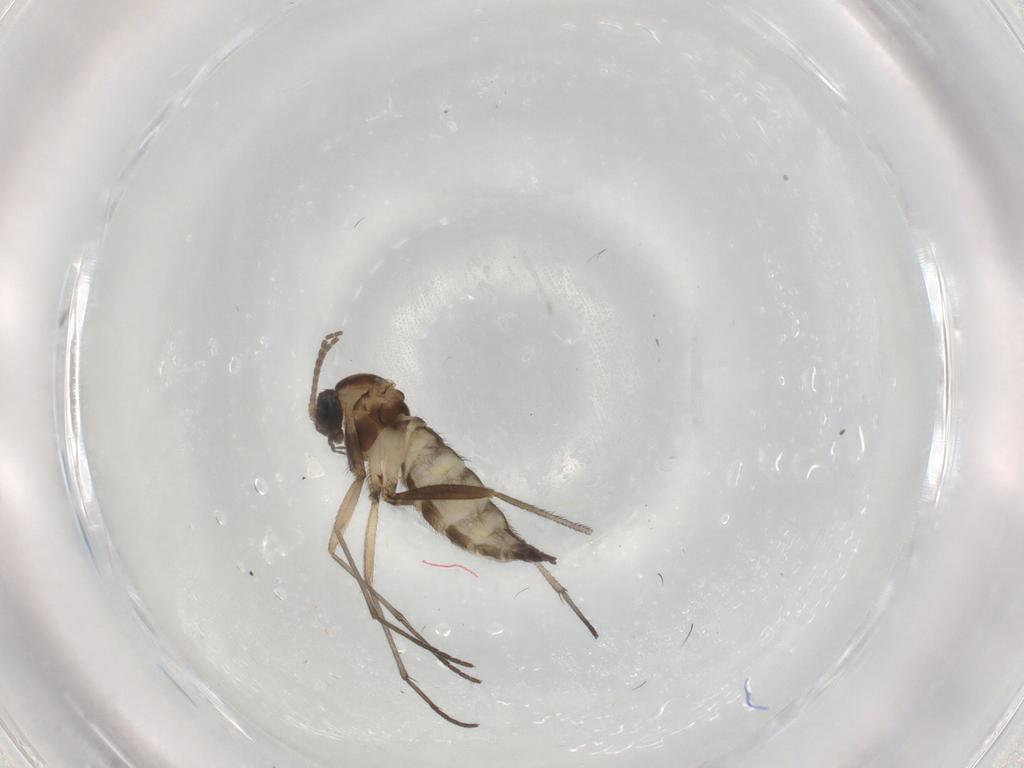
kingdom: Animalia
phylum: Arthropoda
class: Insecta
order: Diptera
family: Sciaridae
